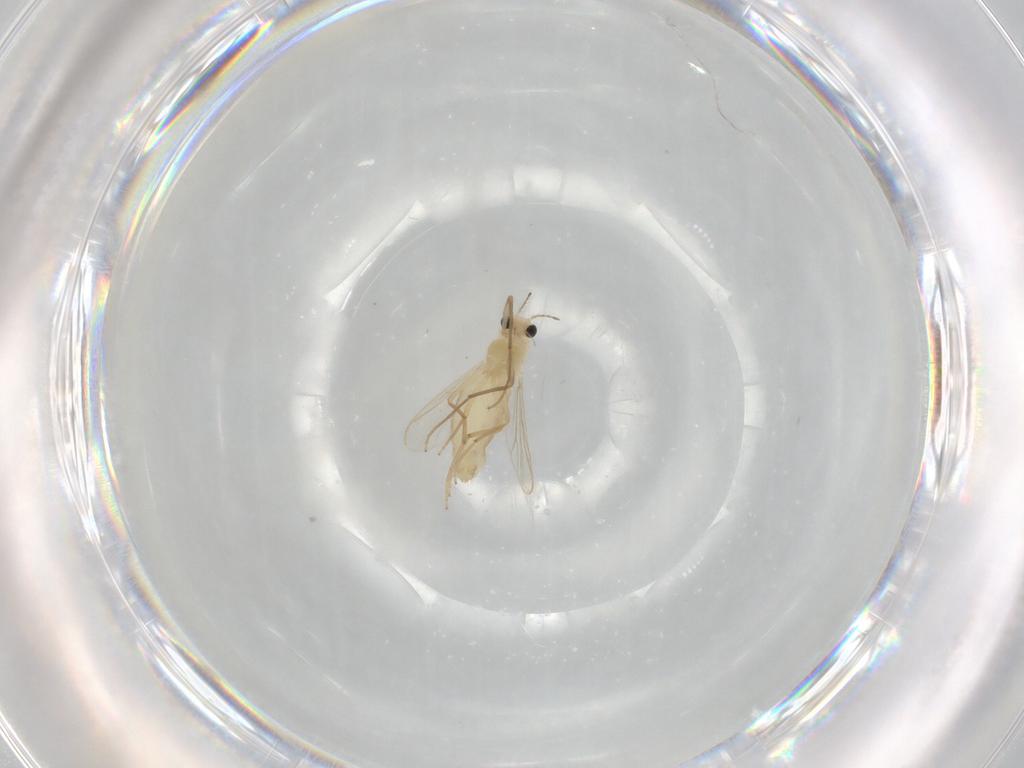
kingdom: Animalia
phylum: Arthropoda
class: Insecta
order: Diptera
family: Chironomidae
